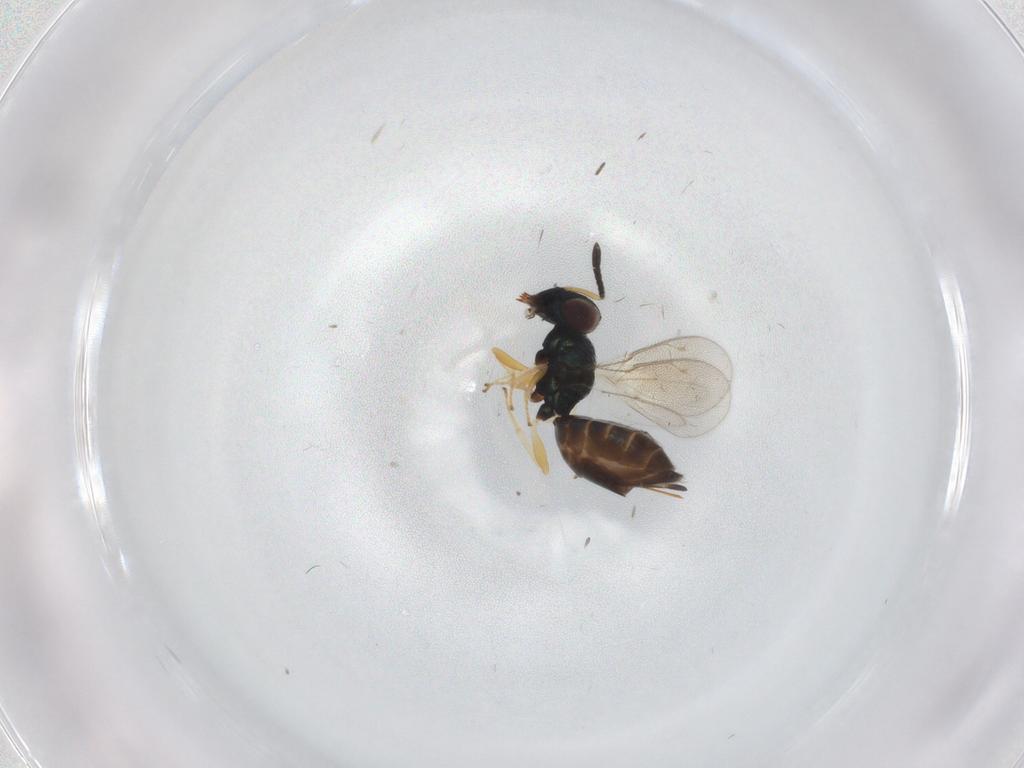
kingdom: Animalia
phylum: Arthropoda
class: Insecta
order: Hymenoptera
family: Pteromalidae
